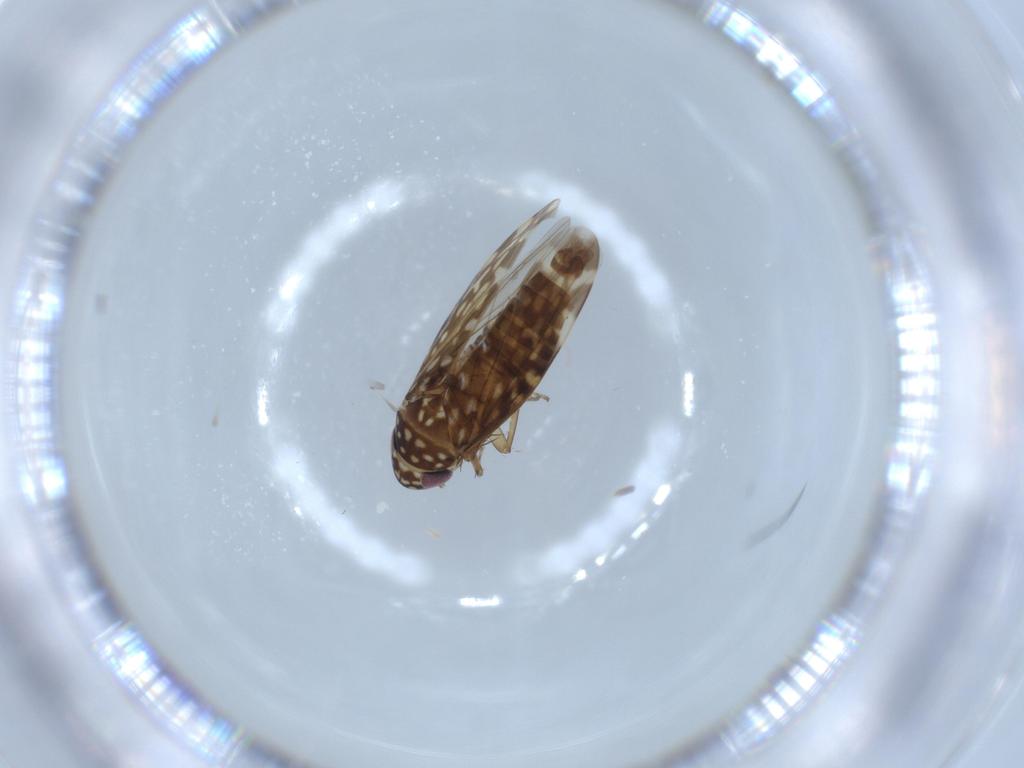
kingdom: Animalia
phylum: Arthropoda
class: Insecta
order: Hemiptera
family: Cicadellidae
